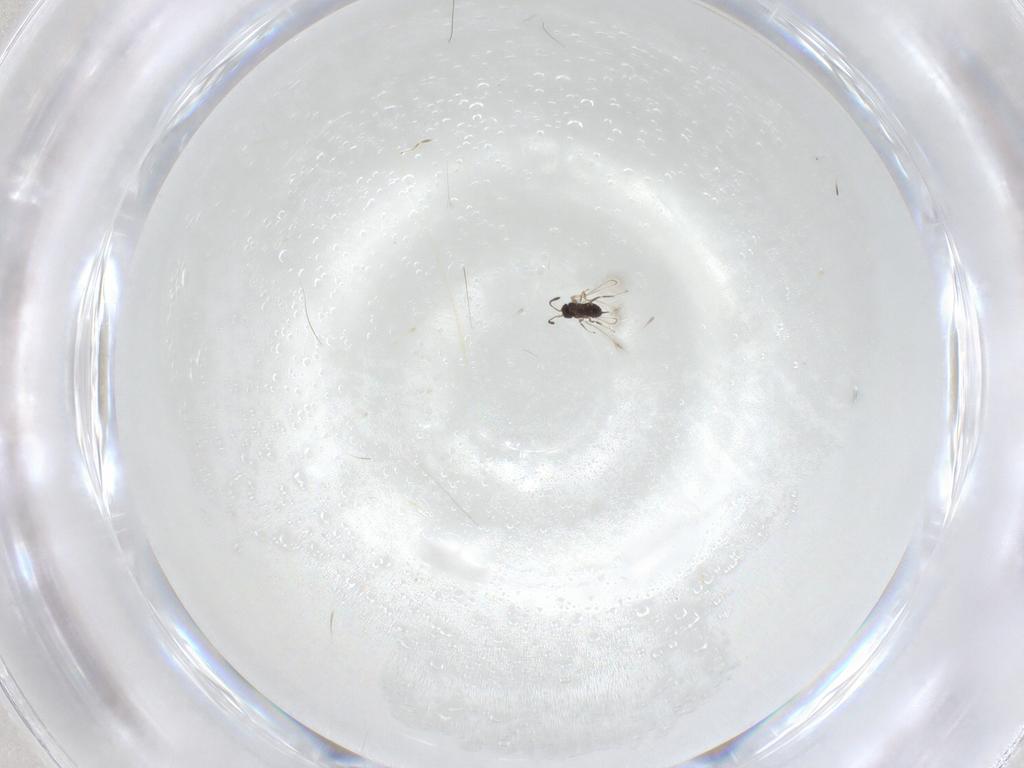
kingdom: Animalia
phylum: Arthropoda
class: Insecta
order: Hymenoptera
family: Mymaridae
